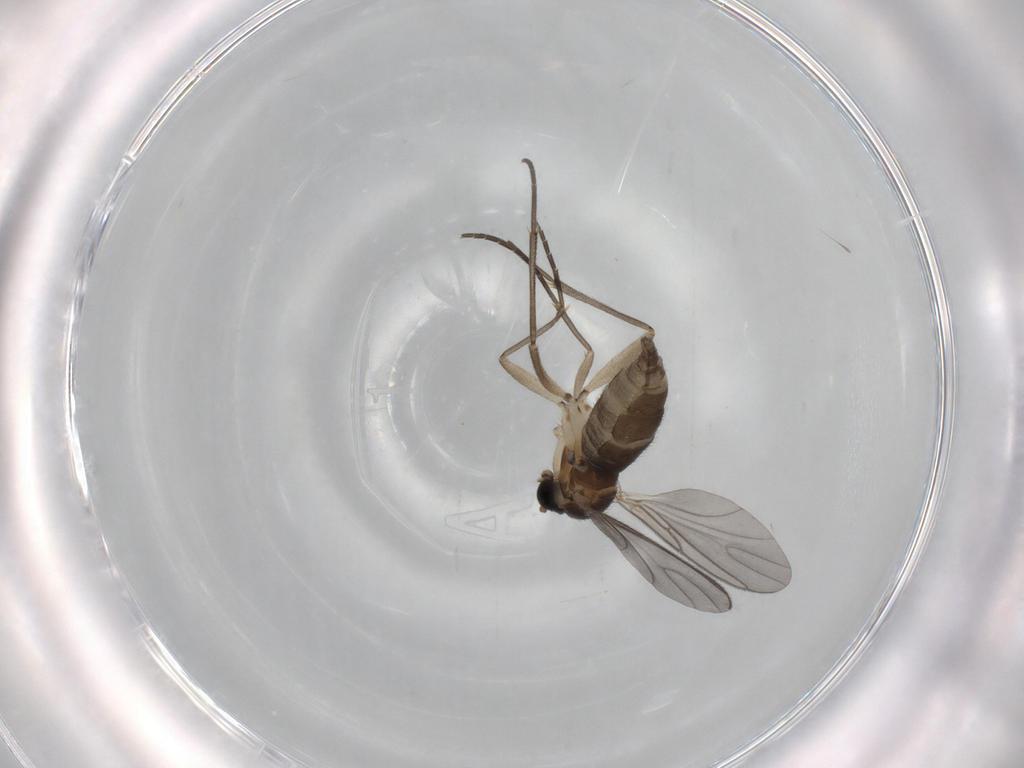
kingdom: Animalia
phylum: Arthropoda
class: Insecta
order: Diptera
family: Sciaridae
